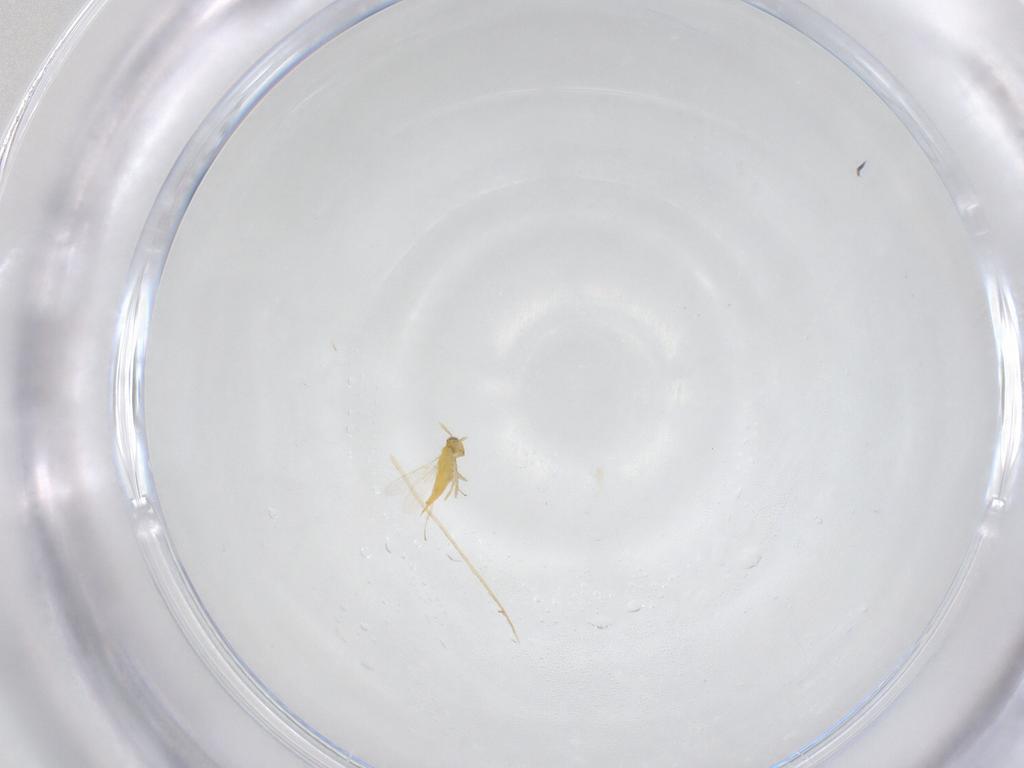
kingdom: Animalia
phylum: Arthropoda
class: Insecta
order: Hymenoptera
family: Aphelinidae
